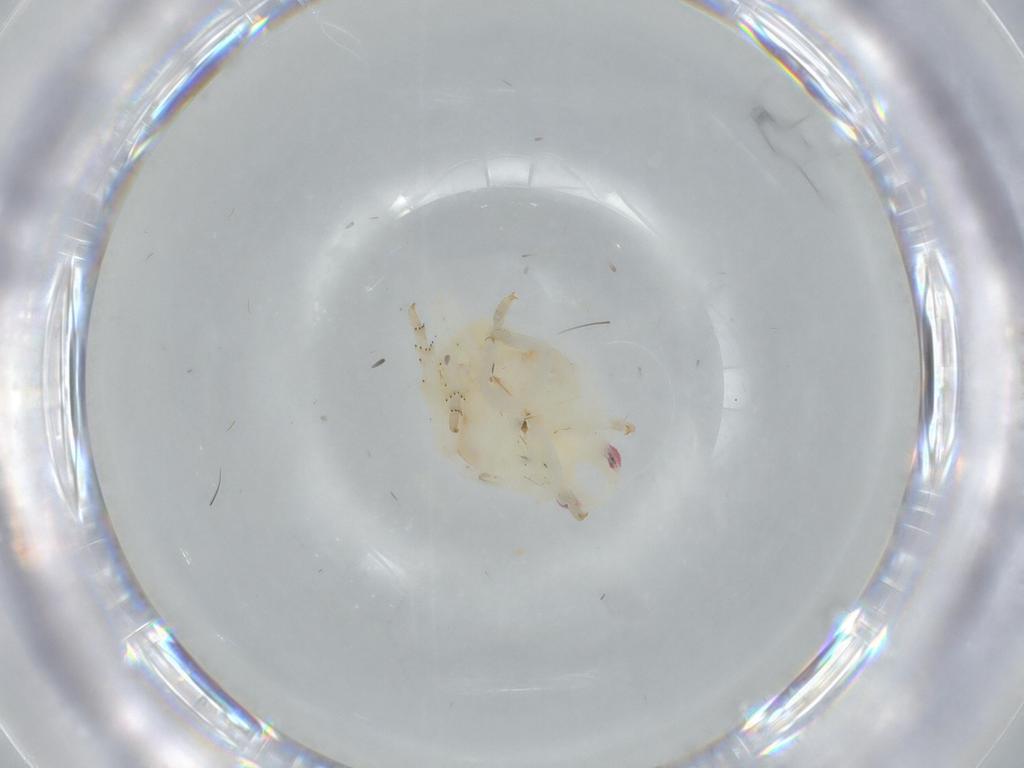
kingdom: Animalia
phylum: Arthropoda
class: Insecta
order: Hemiptera
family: Flatidae
